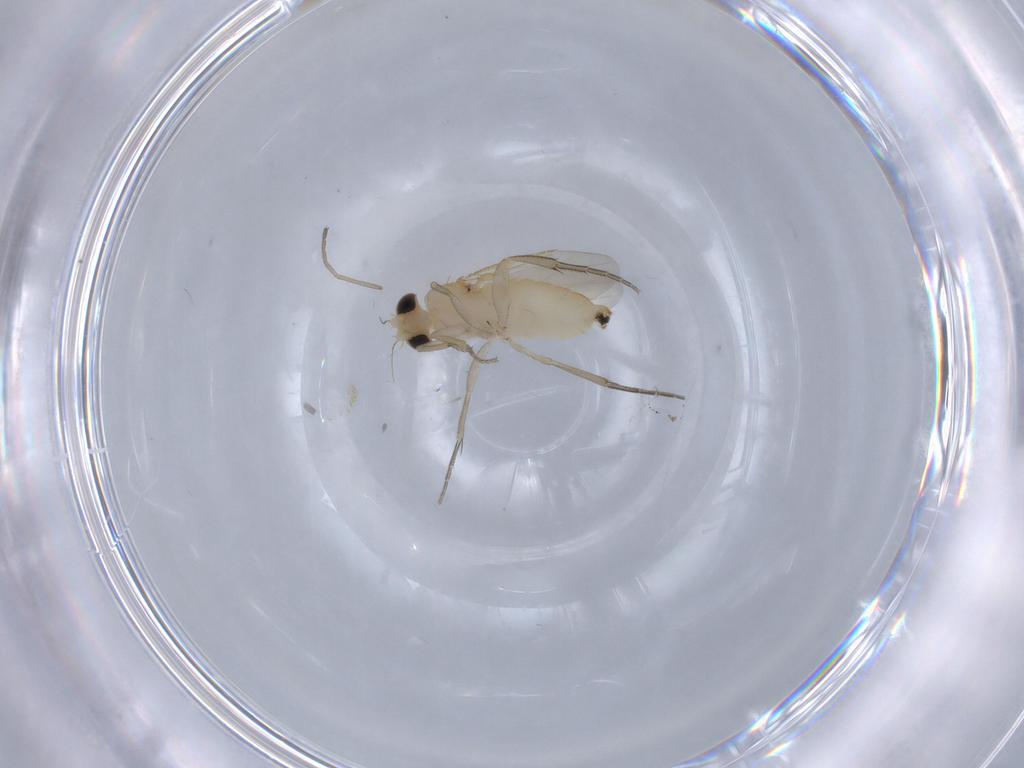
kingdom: Animalia
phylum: Arthropoda
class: Insecta
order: Diptera
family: Cecidomyiidae
